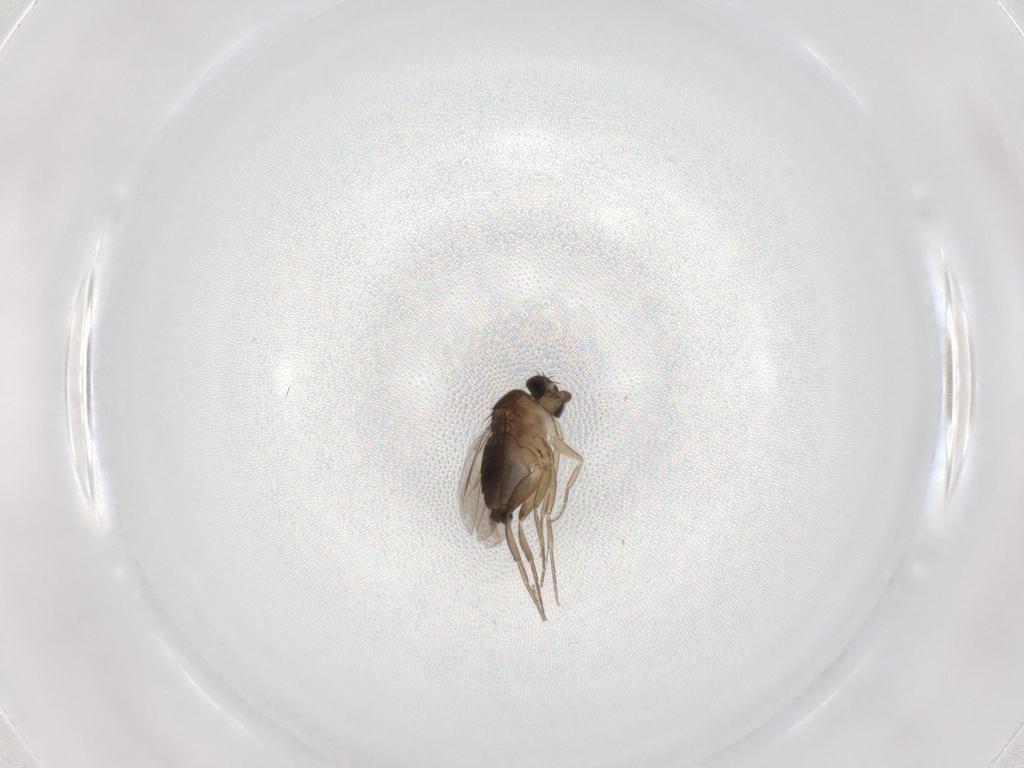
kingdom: Animalia
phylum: Arthropoda
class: Insecta
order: Diptera
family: Phoridae
